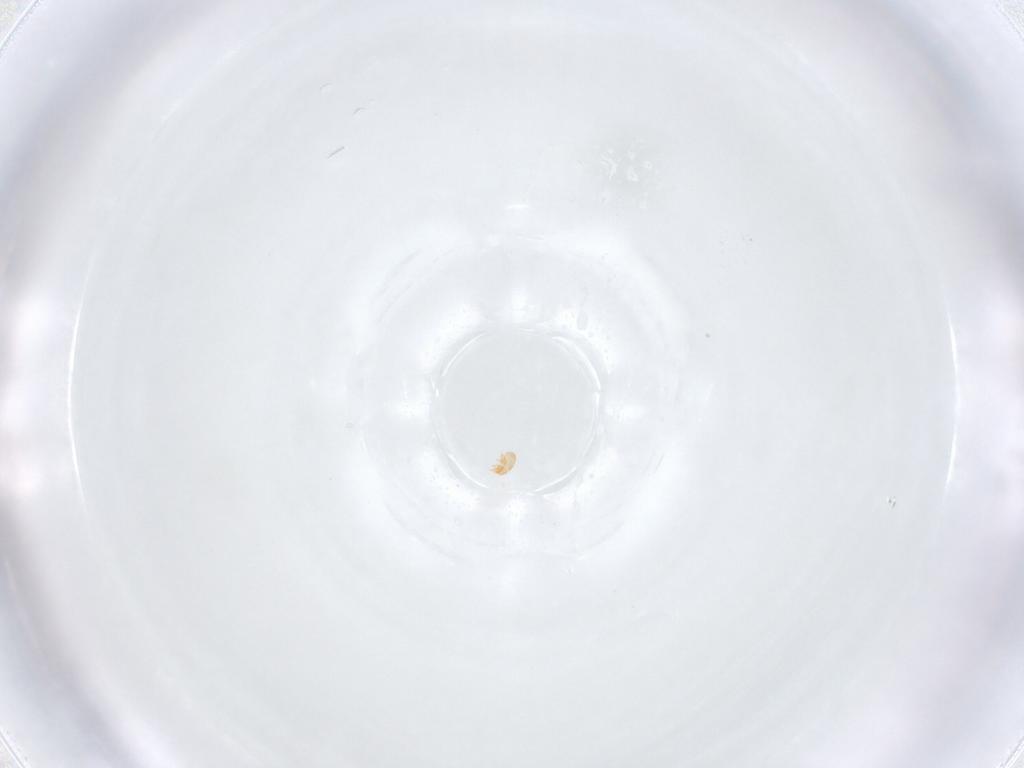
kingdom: Animalia
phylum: Arthropoda
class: Arachnida
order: Sarcoptiformes
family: Brachychthoniidae
